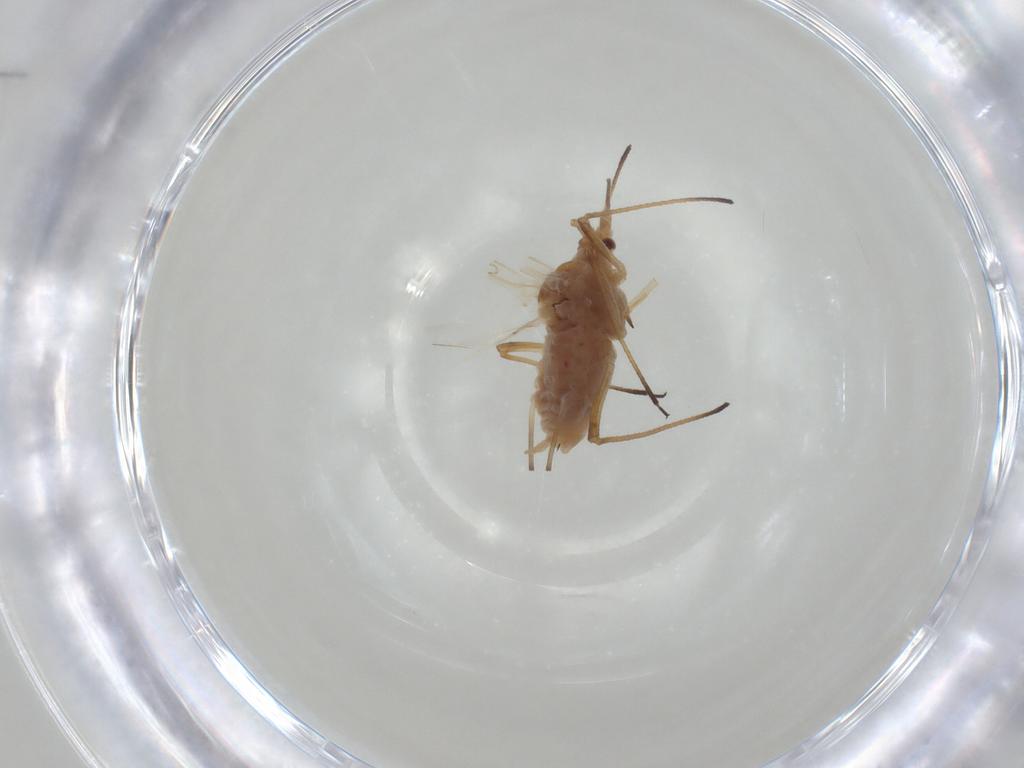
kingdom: Animalia
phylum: Arthropoda
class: Insecta
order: Hemiptera
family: Aphididae
